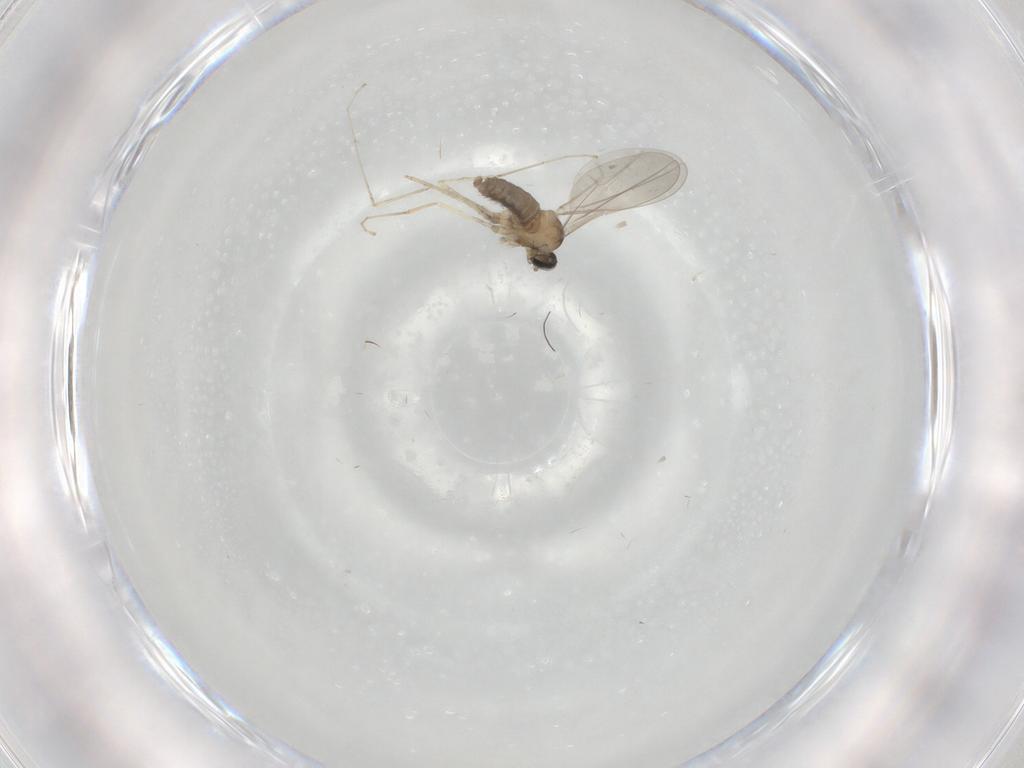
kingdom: Animalia
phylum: Arthropoda
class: Insecta
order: Diptera
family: Cecidomyiidae
